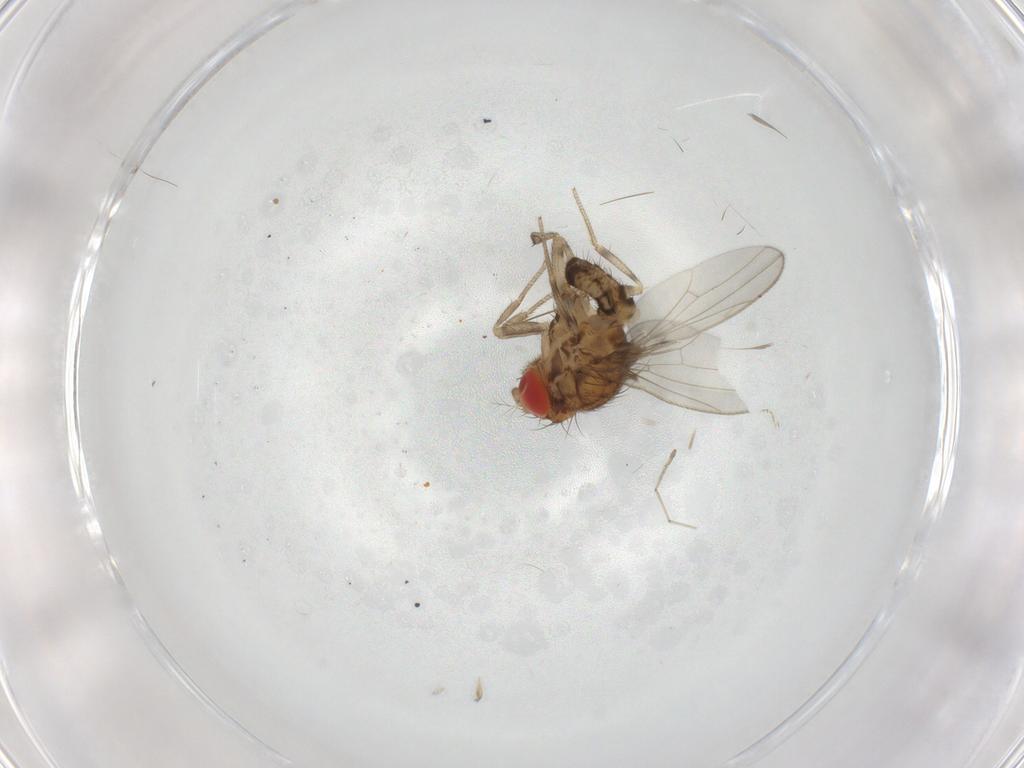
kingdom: Animalia
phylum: Arthropoda
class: Insecta
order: Diptera
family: Drosophilidae
